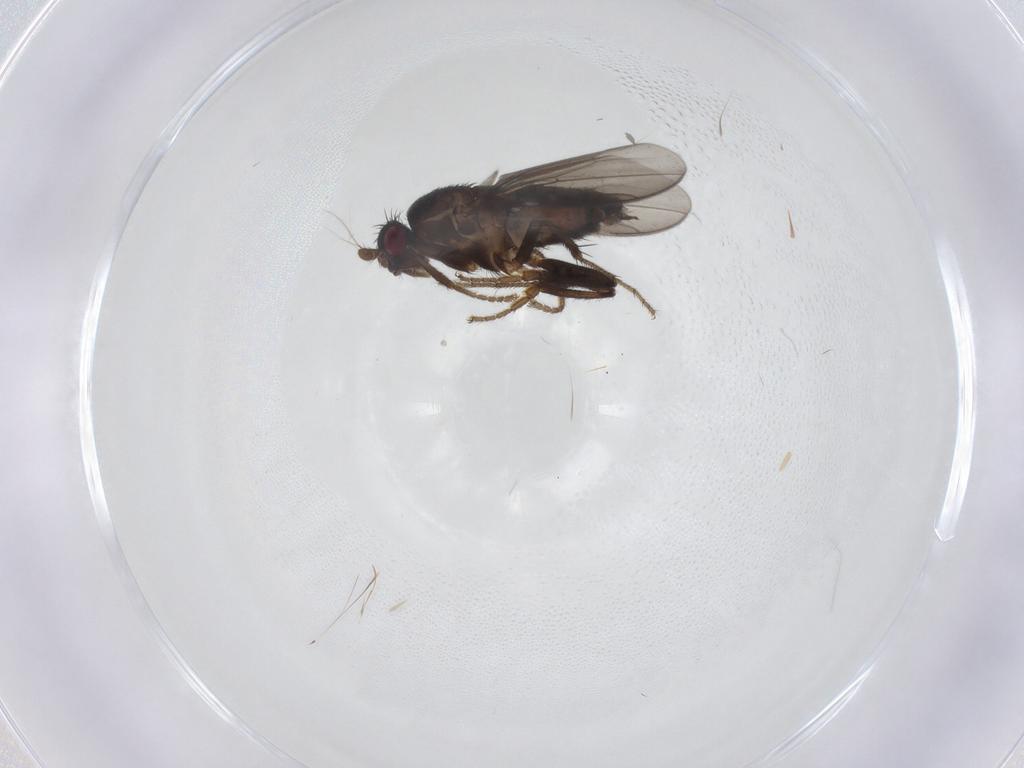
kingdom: Animalia
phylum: Arthropoda
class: Insecta
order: Diptera
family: Sphaeroceridae
